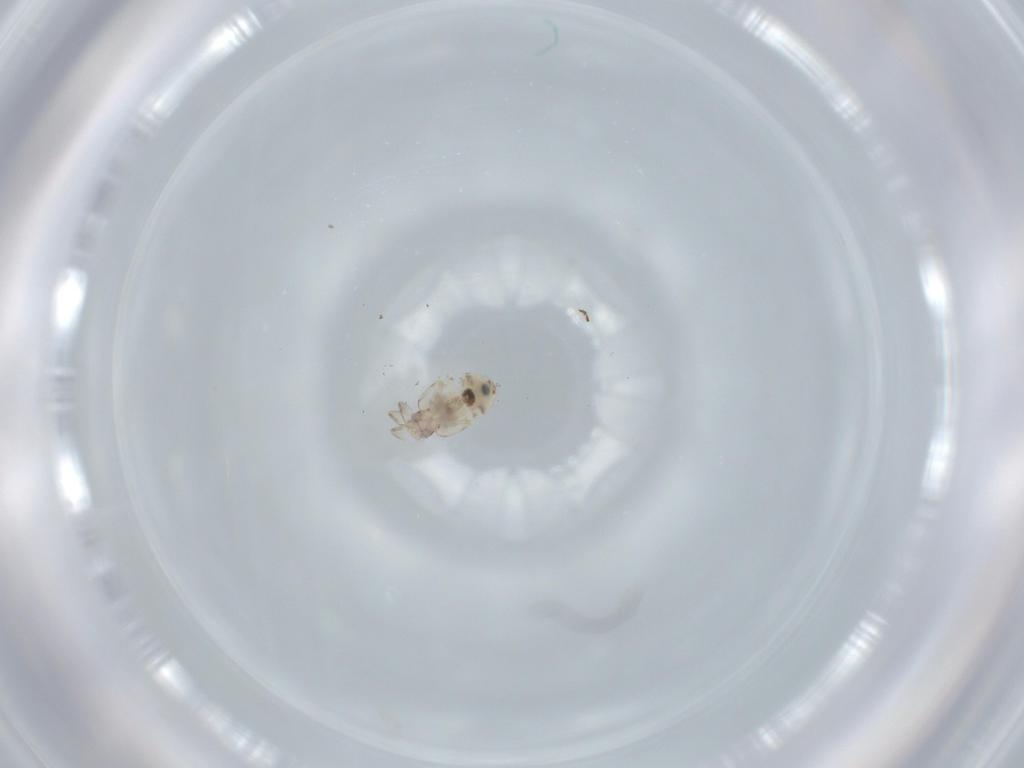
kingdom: Animalia
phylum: Arthropoda
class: Insecta
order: Psocodea
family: Liposcelididae
